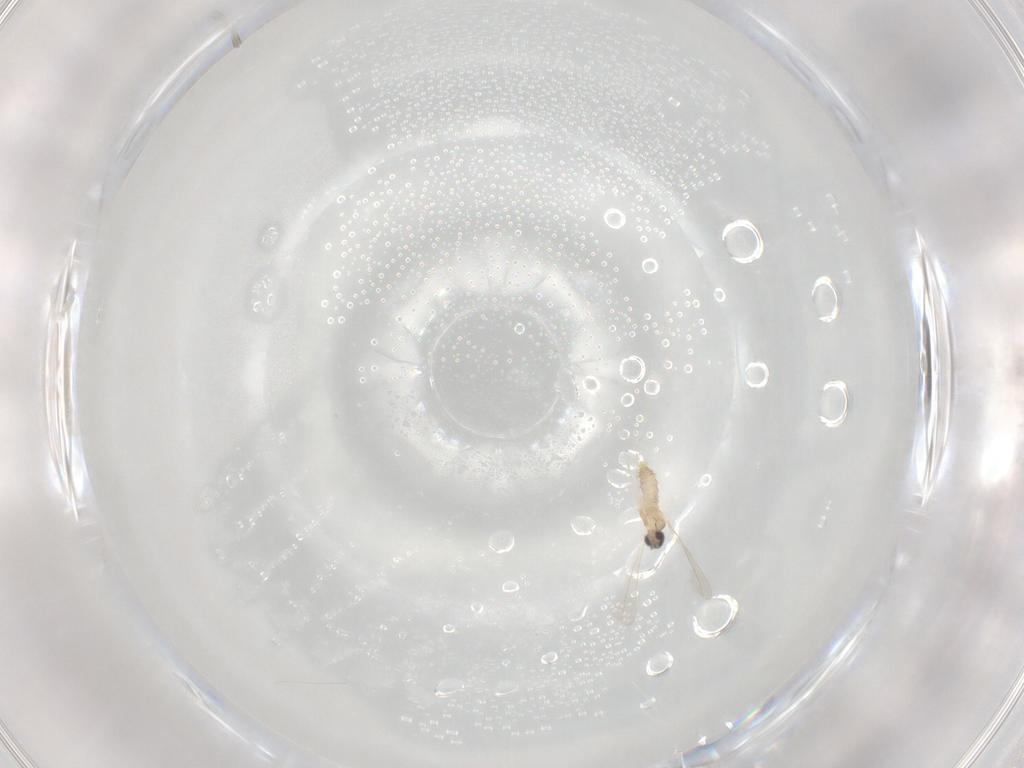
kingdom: Animalia
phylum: Arthropoda
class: Insecta
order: Diptera
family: Cecidomyiidae
